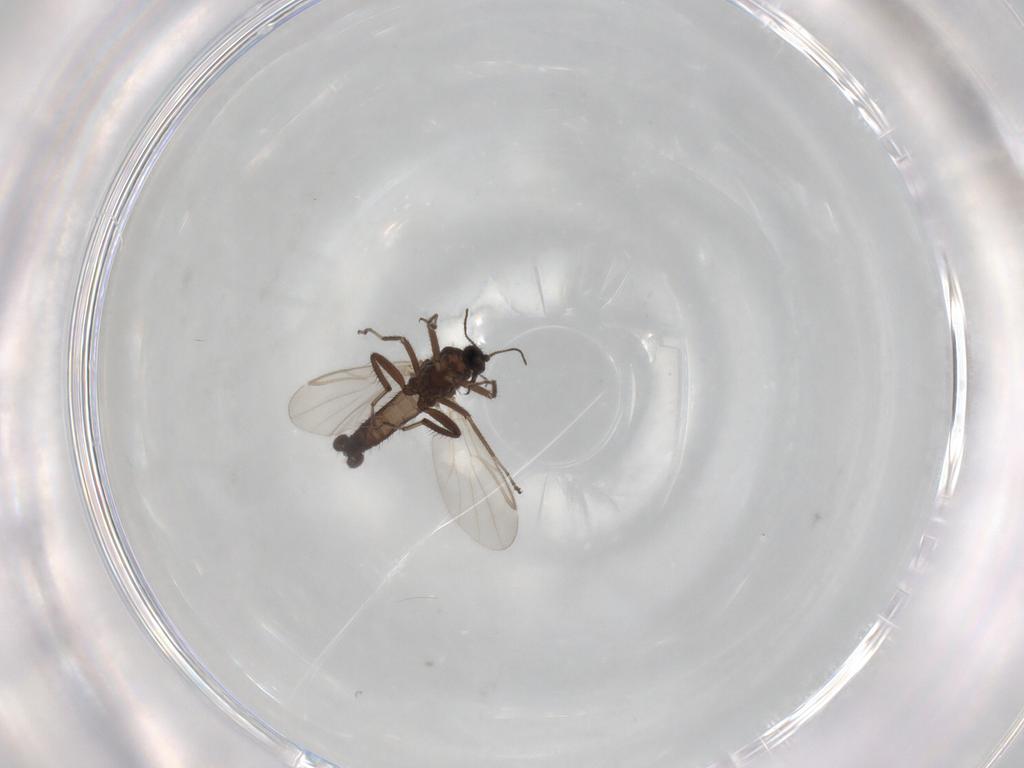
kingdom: Animalia
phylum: Arthropoda
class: Insecta
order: Diptera
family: Ceratopogonidae
